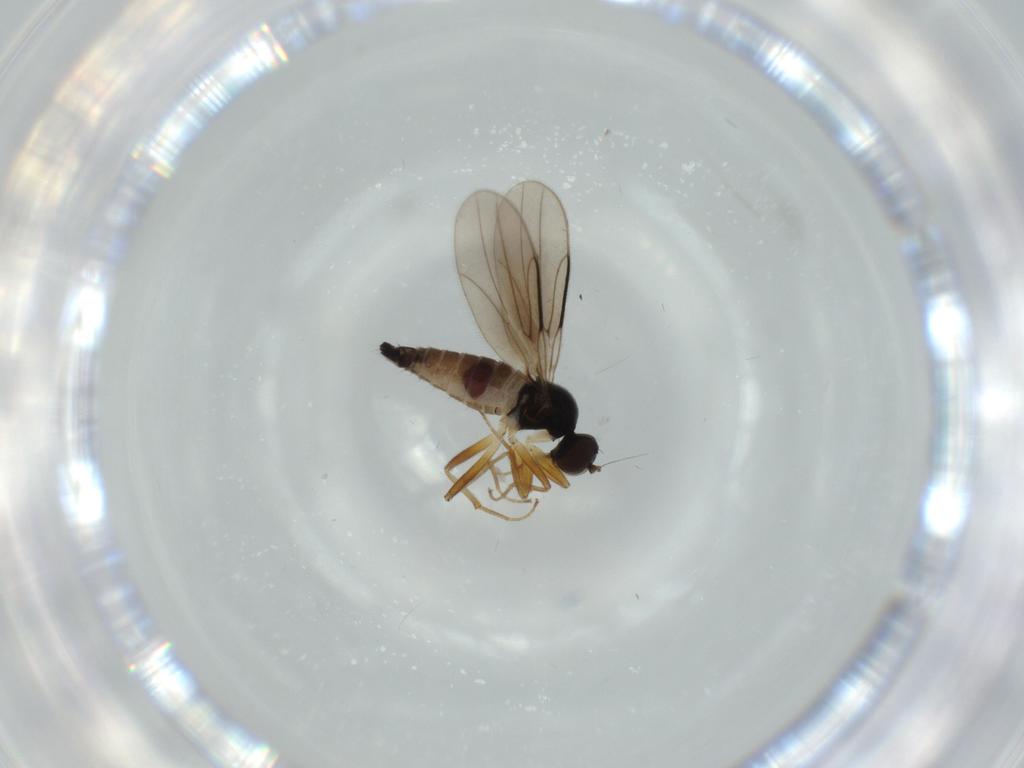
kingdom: Animalia
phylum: Arthropoda
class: Insecta
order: Diptera
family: Hybotidae
